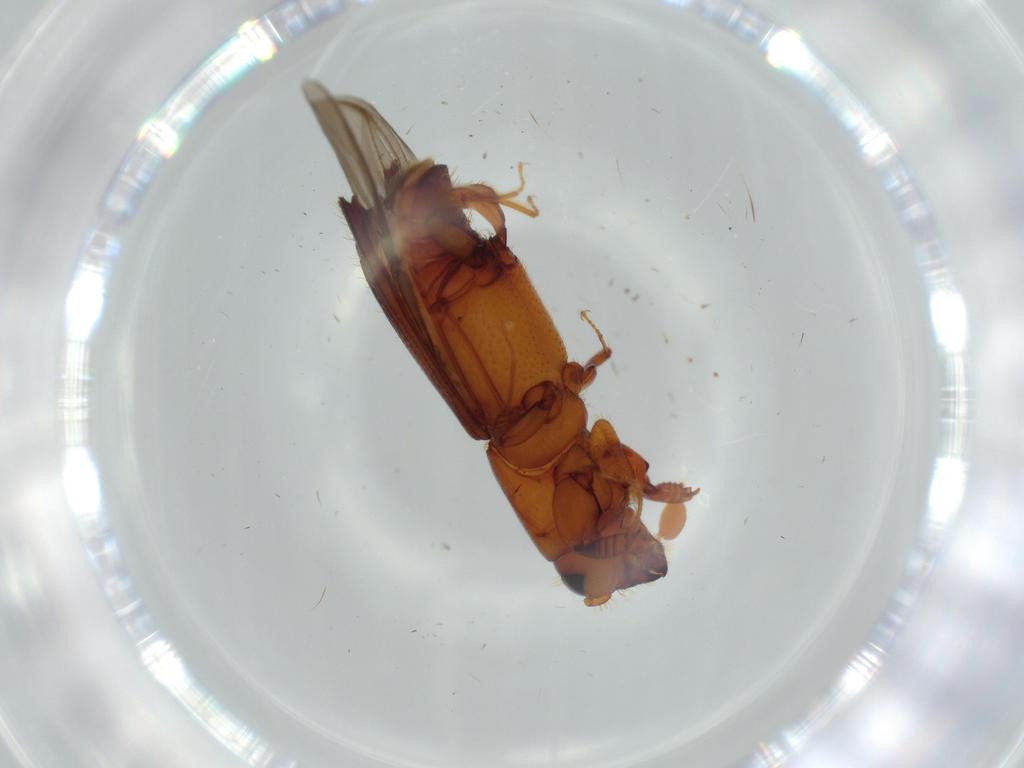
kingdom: Animalia
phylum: Arthropoda
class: Insecta
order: Coleoptera
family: Curculionidae
